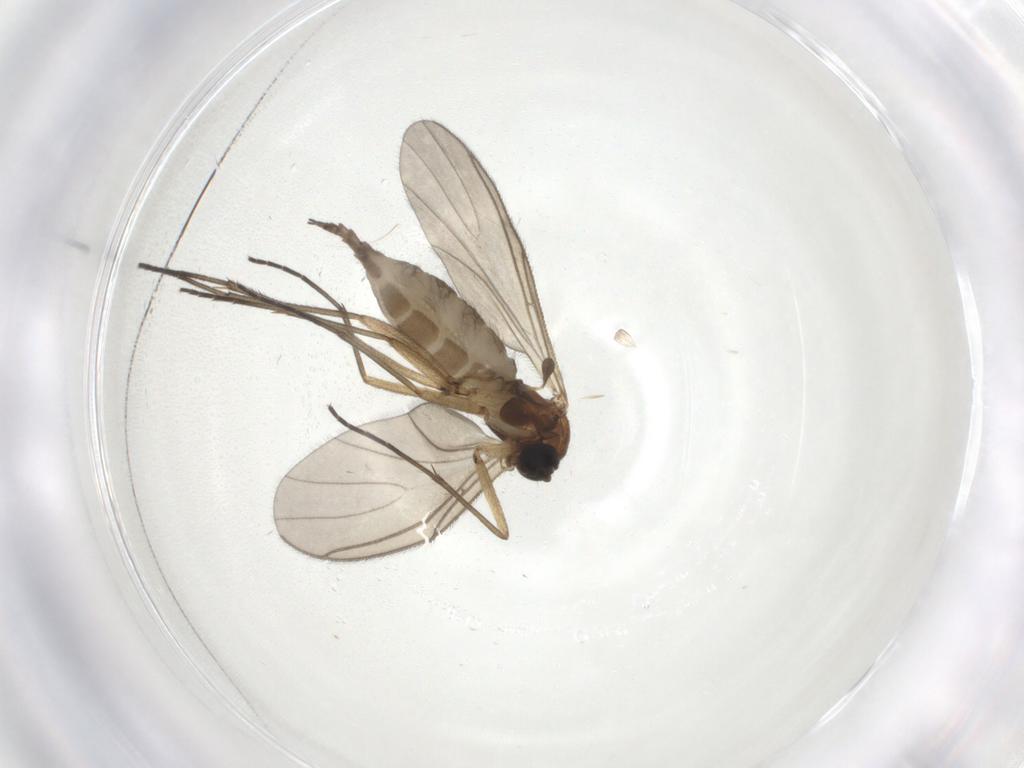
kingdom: Animalia
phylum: Arthropoda
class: Insecta
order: Diptera
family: Sciaridae
